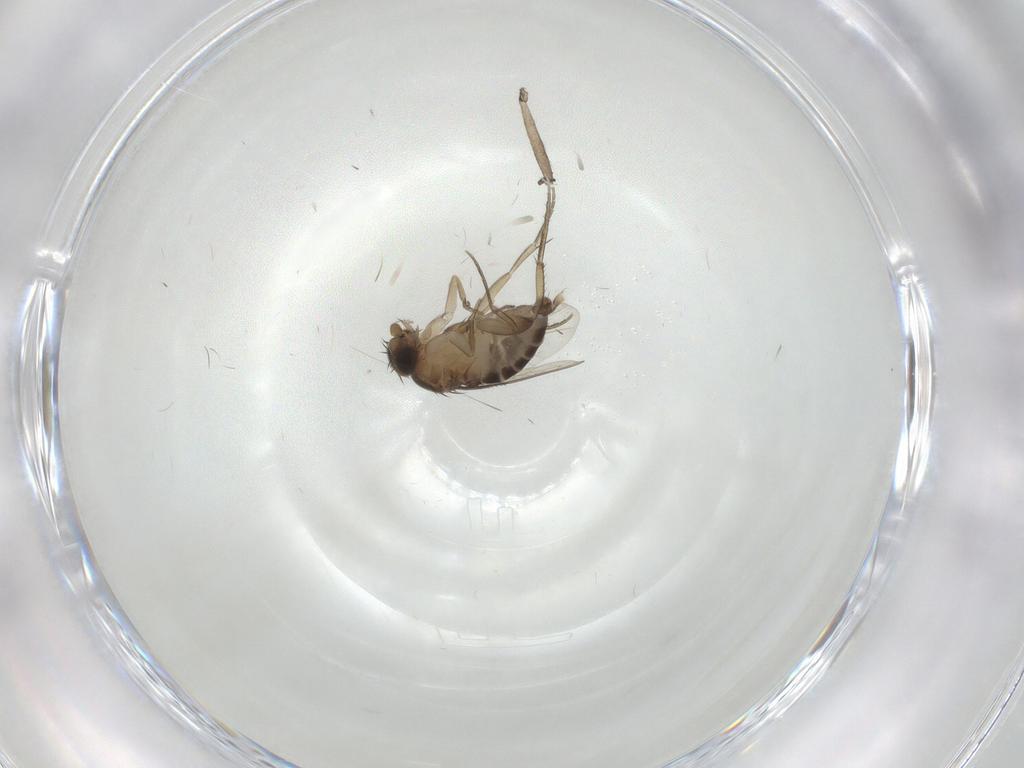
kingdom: Animalia
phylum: Arthropoda
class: Insecta
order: Diptera
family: Phoridae
